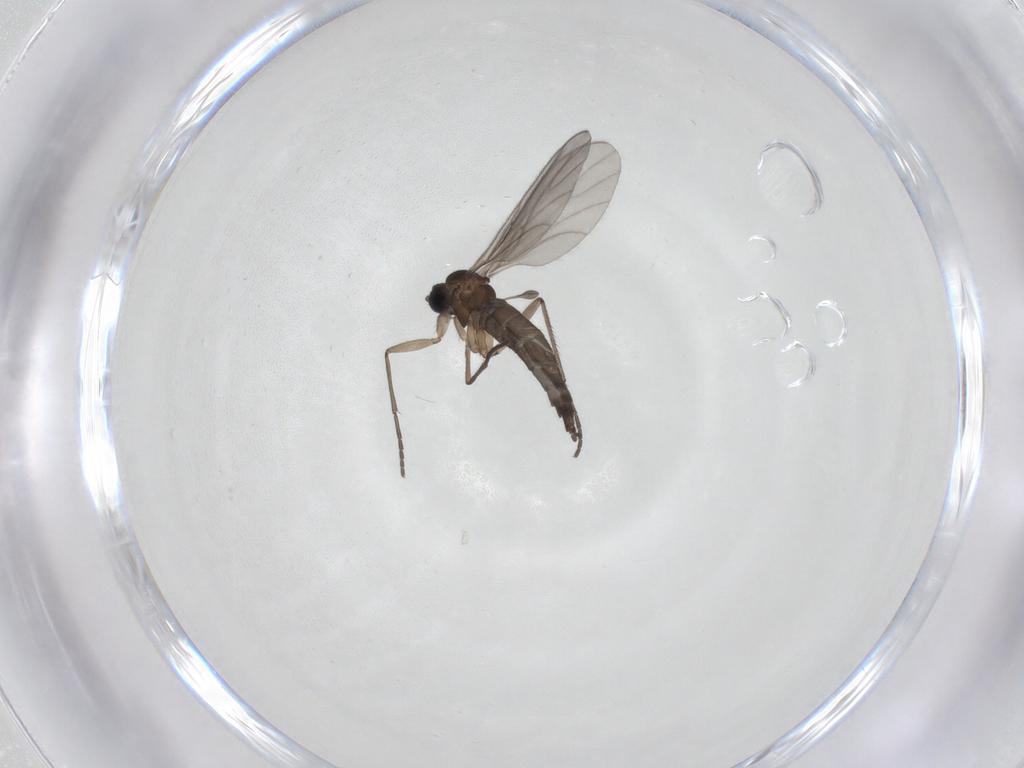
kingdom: Animalia
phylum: Arthropoda
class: Insecta
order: Diptera
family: Sciaridae
